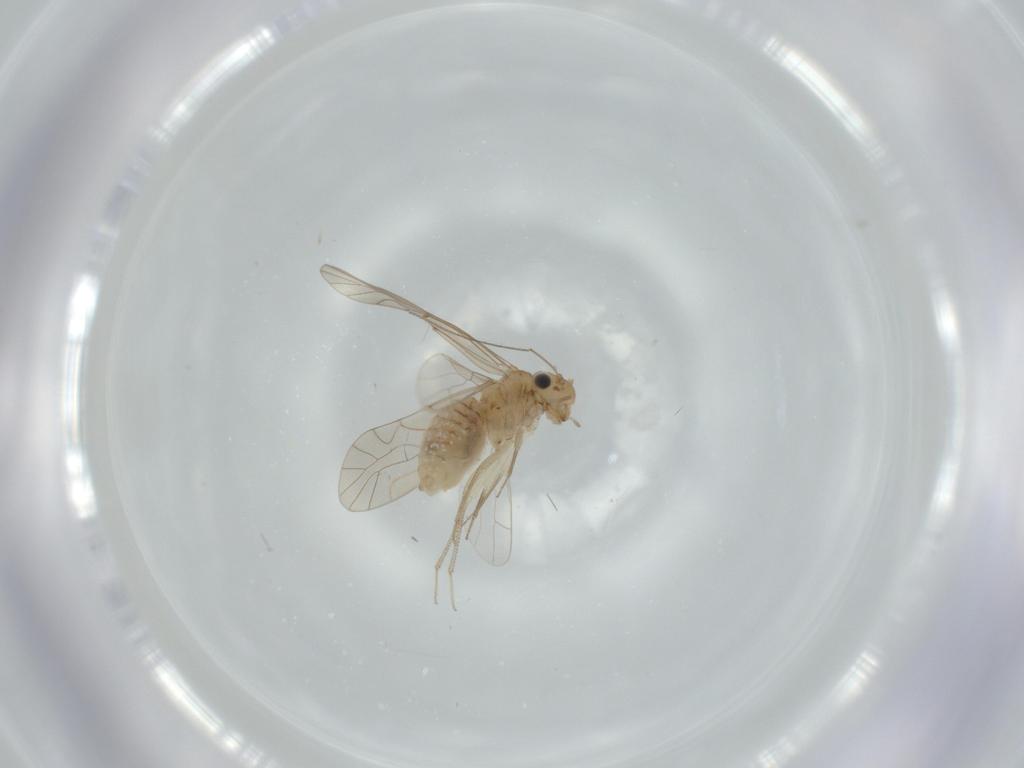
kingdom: Animalia
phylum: Arthropoda
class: Insecta
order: Psocodea
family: Lachesillidae
